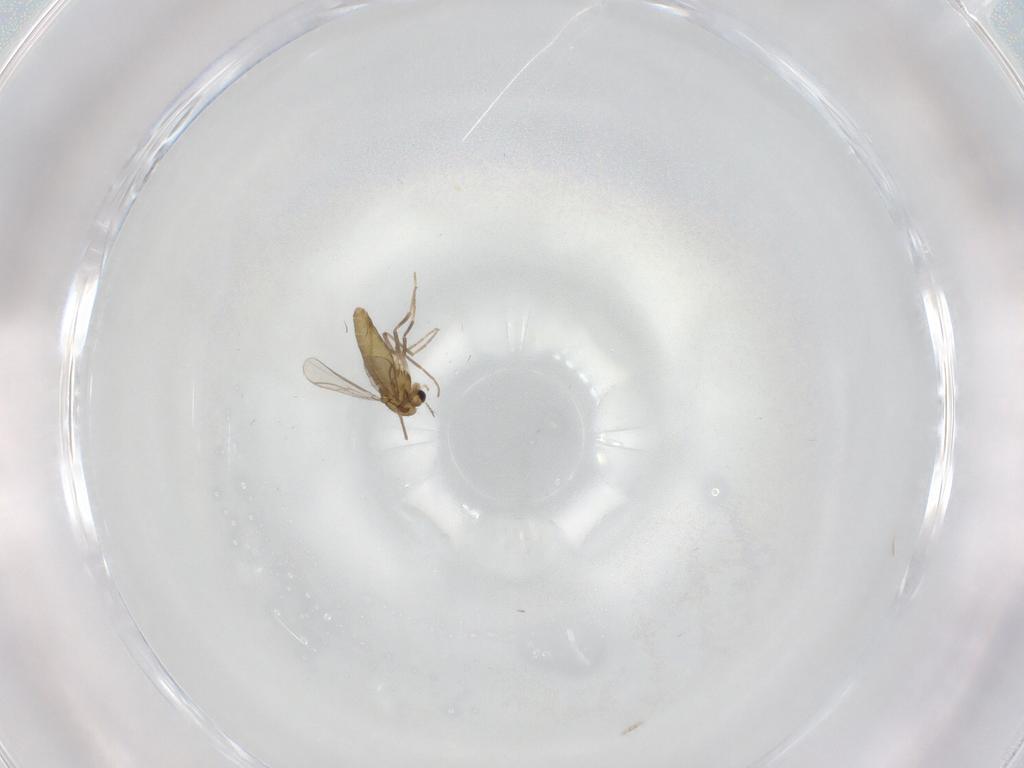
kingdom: Animalia
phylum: Arthropoda
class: Insecta
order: Diptera
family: Chironomidae
